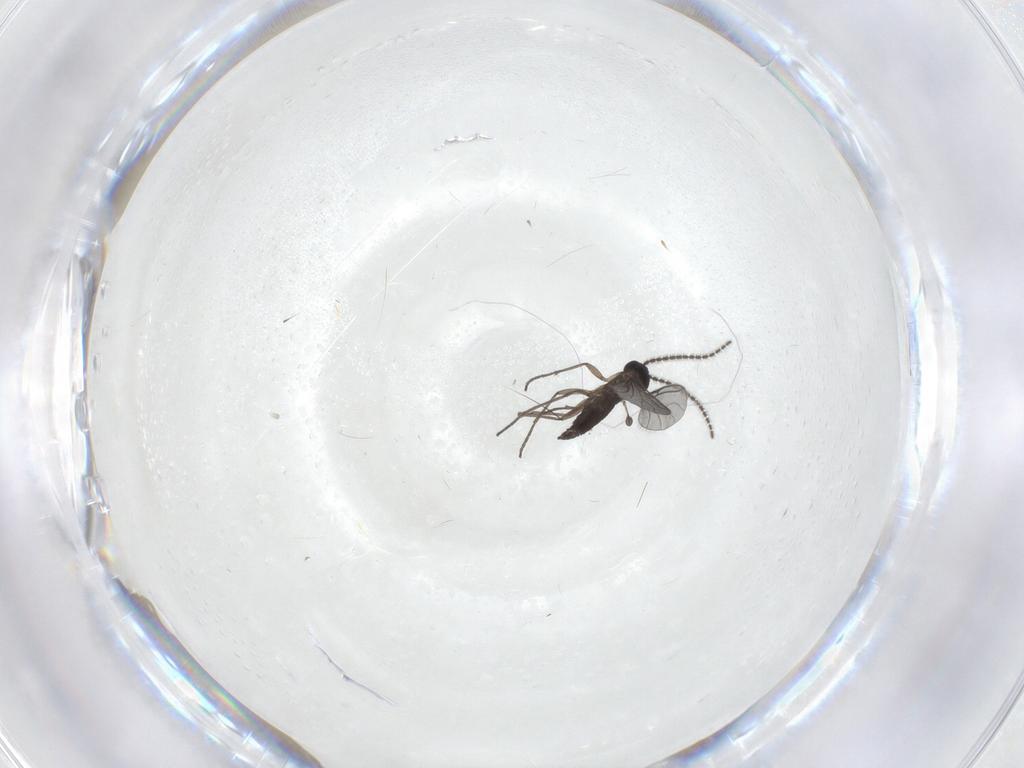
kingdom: Animalia
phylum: Arthropoda
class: Insecta
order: Diptera
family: Sciaridae
